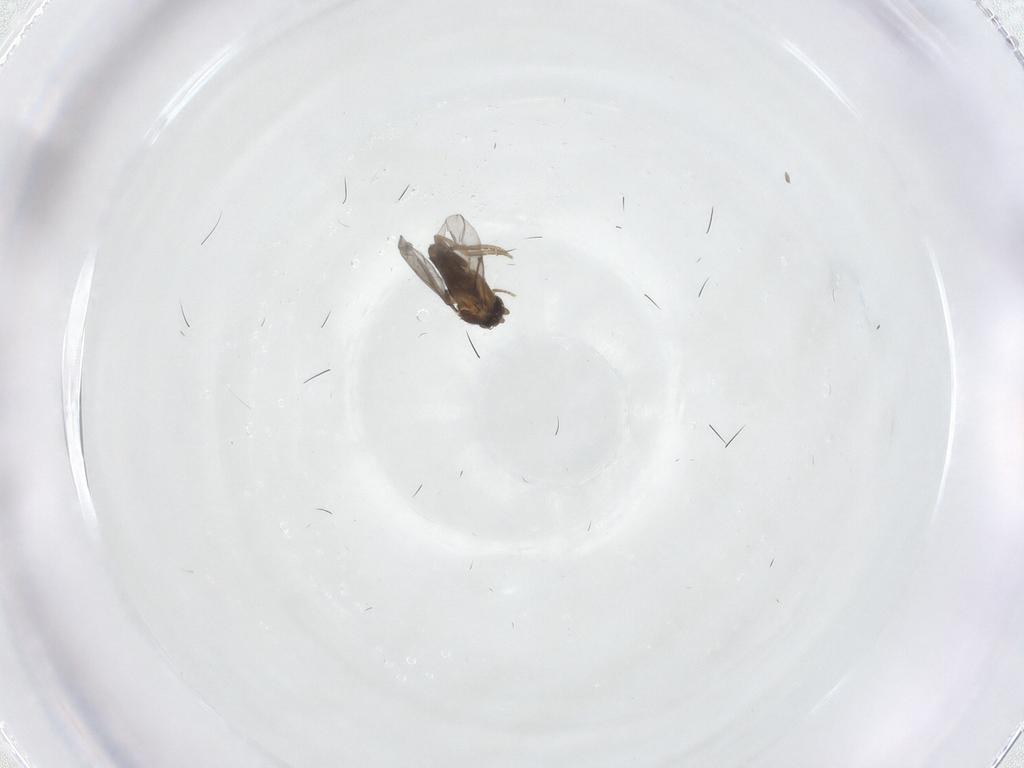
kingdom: Animalia
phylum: Arthropoda
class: Insecta
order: Diptera
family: Tabanidae
